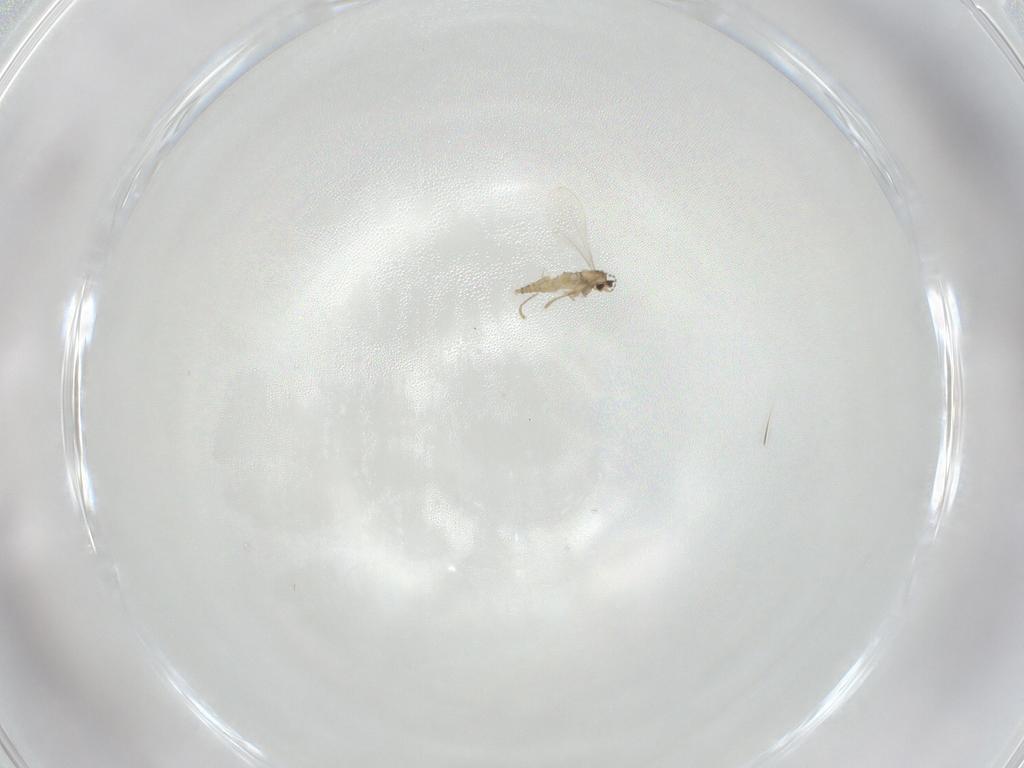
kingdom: Animalia
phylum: Arthropoda
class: Insecta
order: Diptera
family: Cecidomyiidae
